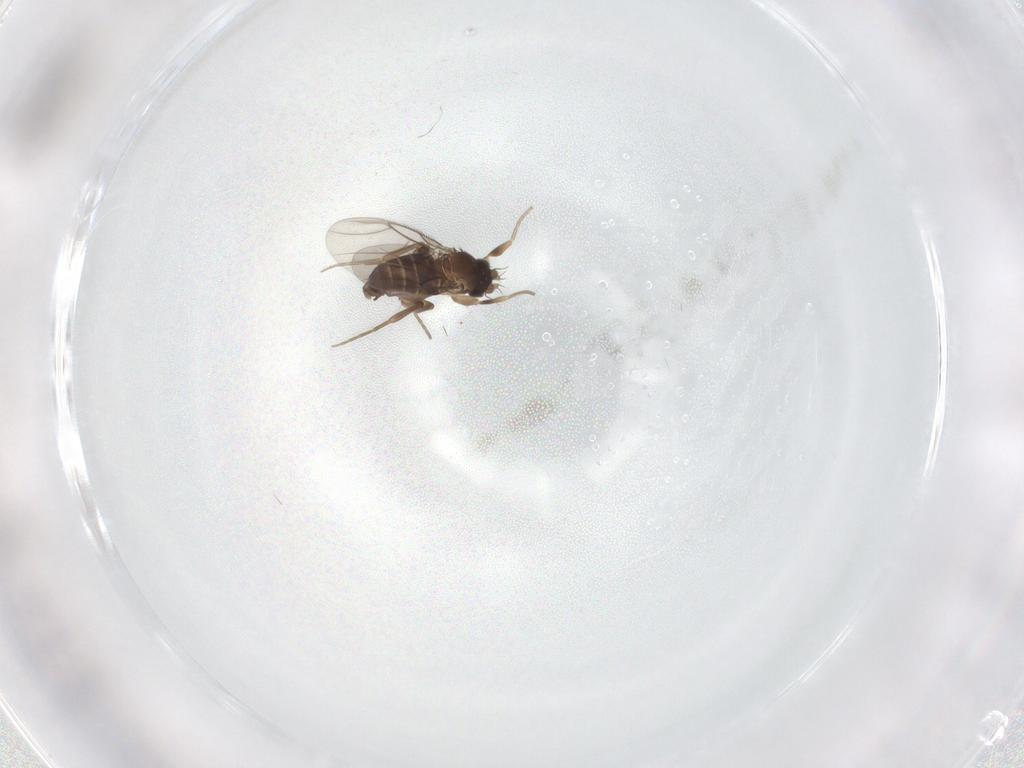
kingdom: Animalia
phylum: Arthropoda
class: Insecta
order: Diptera
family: Phoridae
